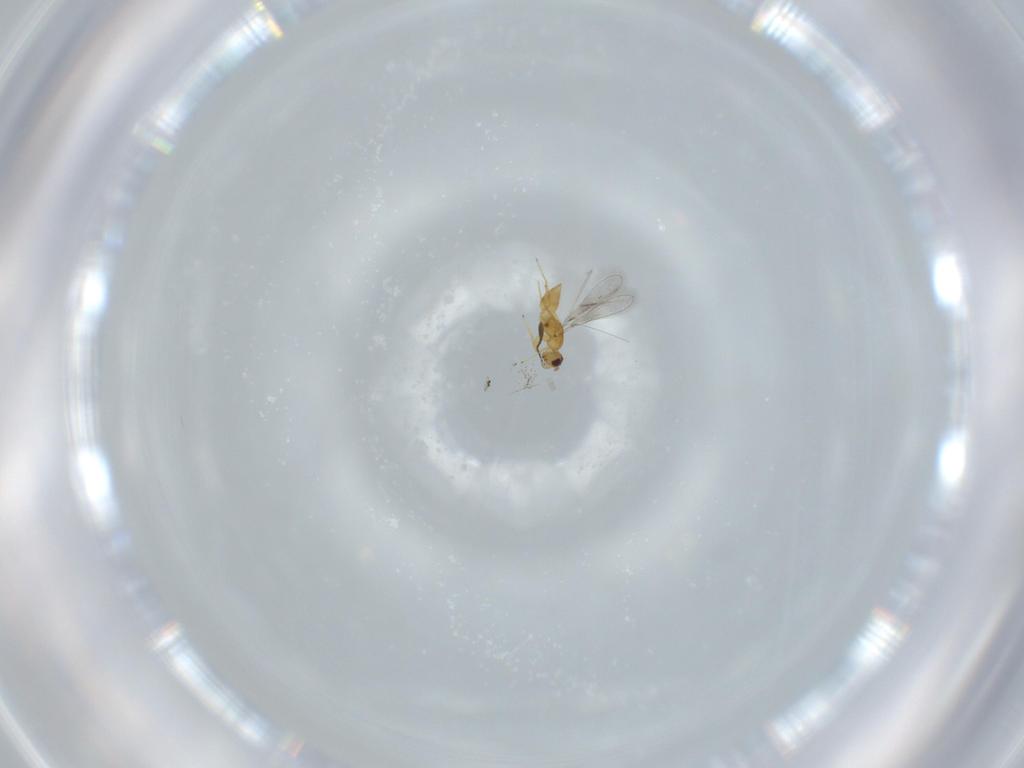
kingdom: Animalia
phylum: Arthropoda
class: Insecta
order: Hymenoptera
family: Mymaridae
